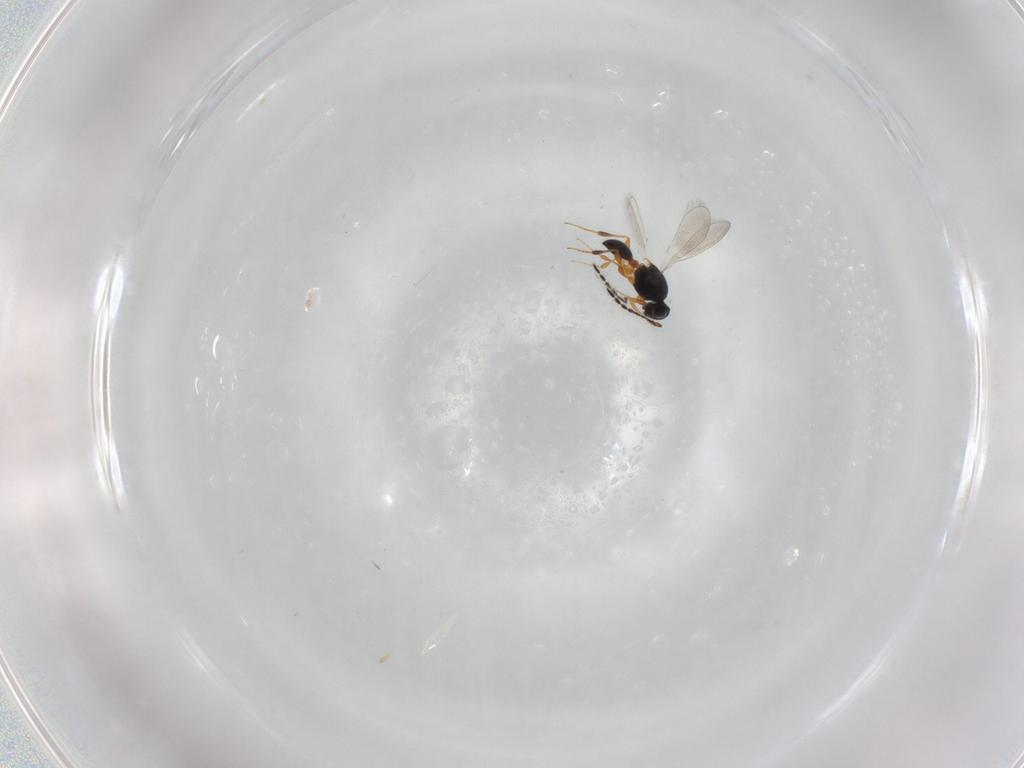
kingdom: Animalia
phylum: Arthropoda
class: Insecta
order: Hymenoptera
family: Platygastridae
